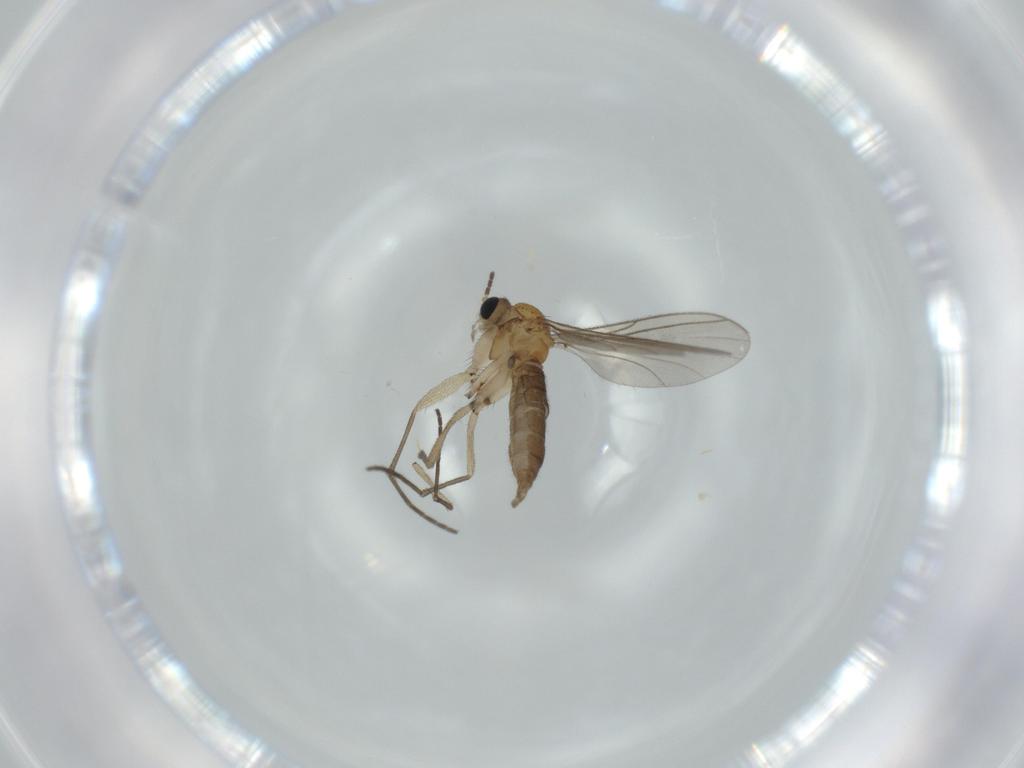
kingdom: Animalia
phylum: Arthropoda
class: Insecta
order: Diptera
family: Sciaridae
